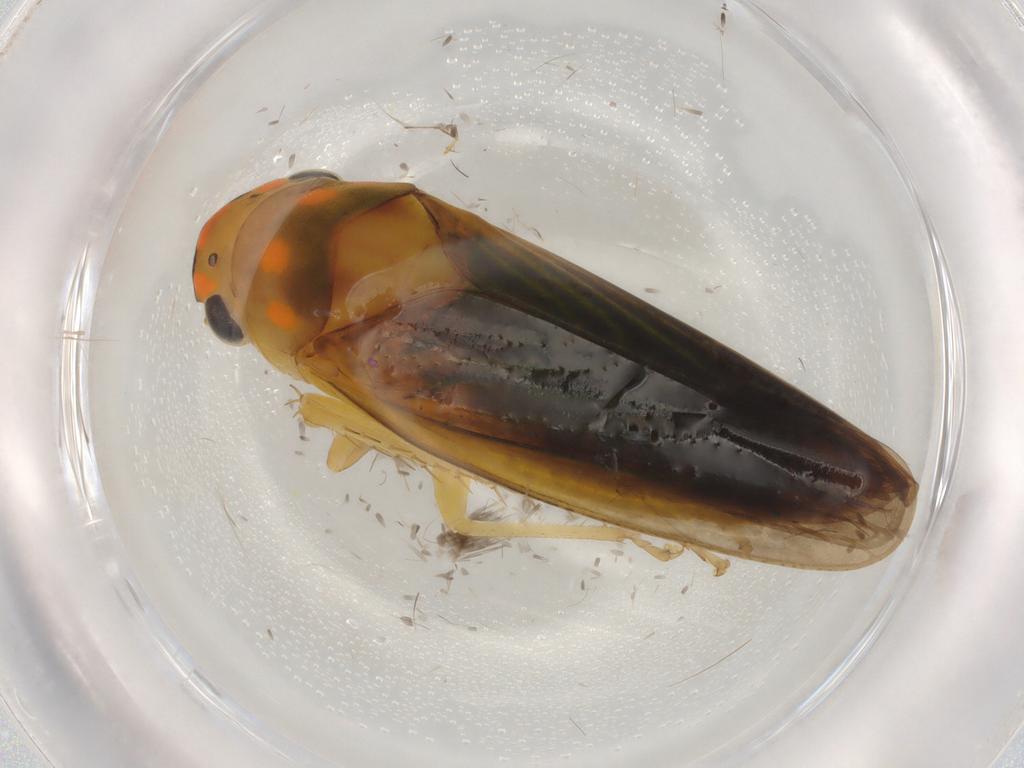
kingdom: Animalia
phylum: Arthropoda
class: Insecta
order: Hemiptera
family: Cicadellidae
